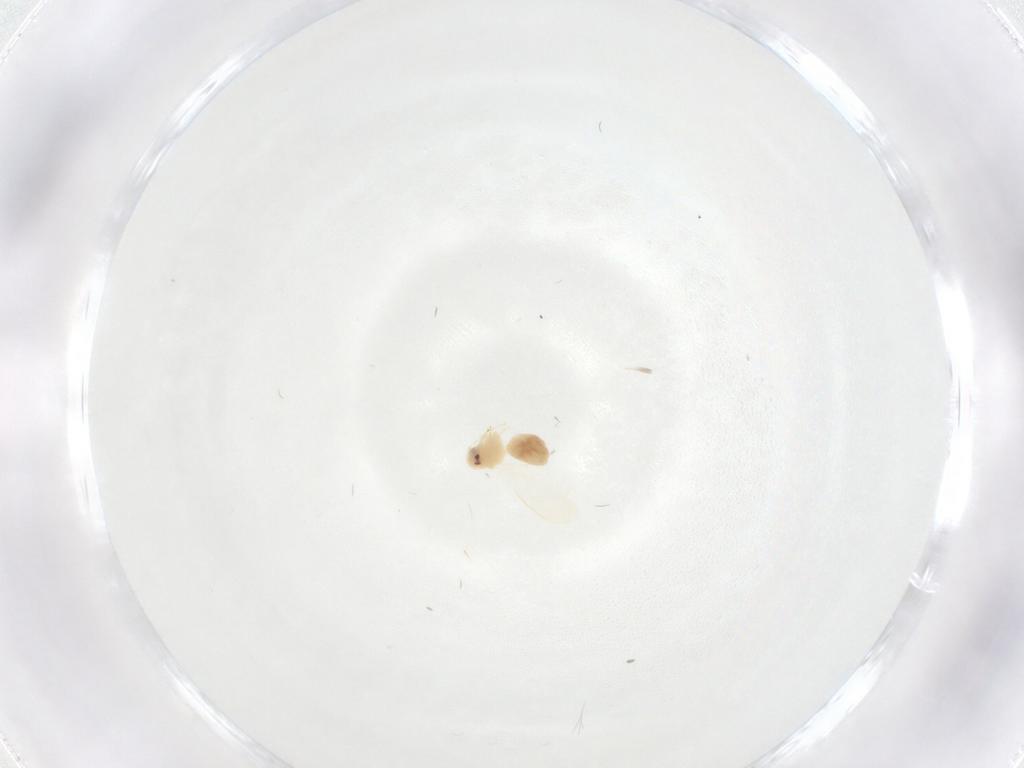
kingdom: Animalia
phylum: Arthropoda
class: Insecta
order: Hemiptera
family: Aleyrodidae
